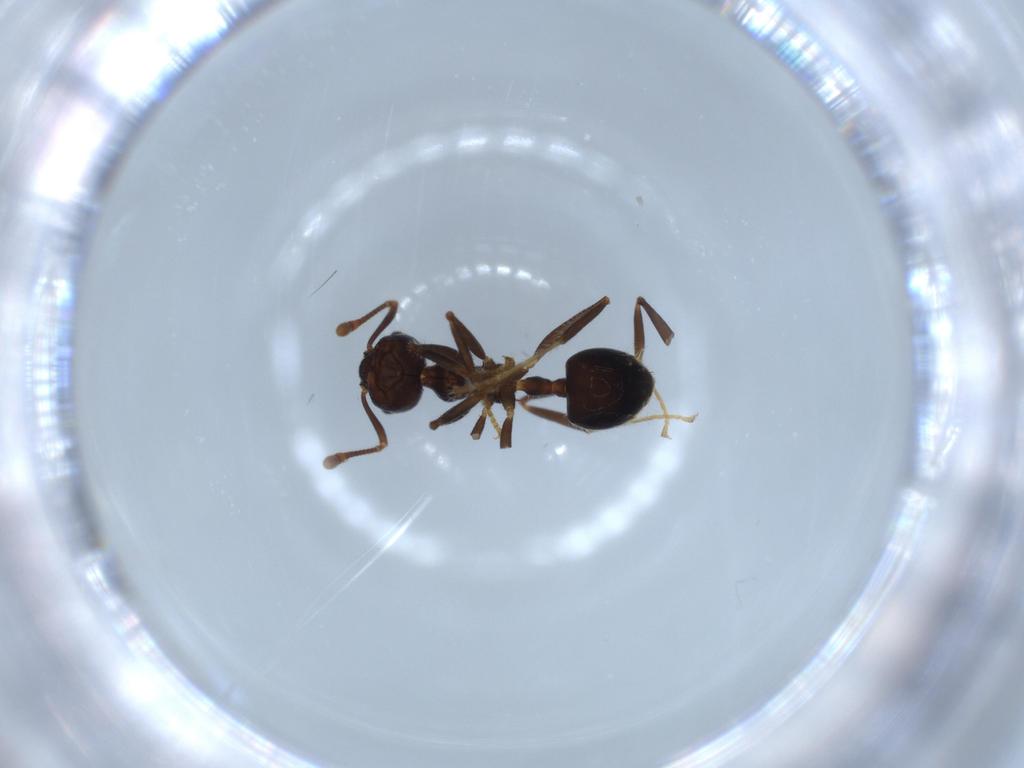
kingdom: Animalia
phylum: Arthropoda
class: Insecta
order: Hymenoptera
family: Formicidae
